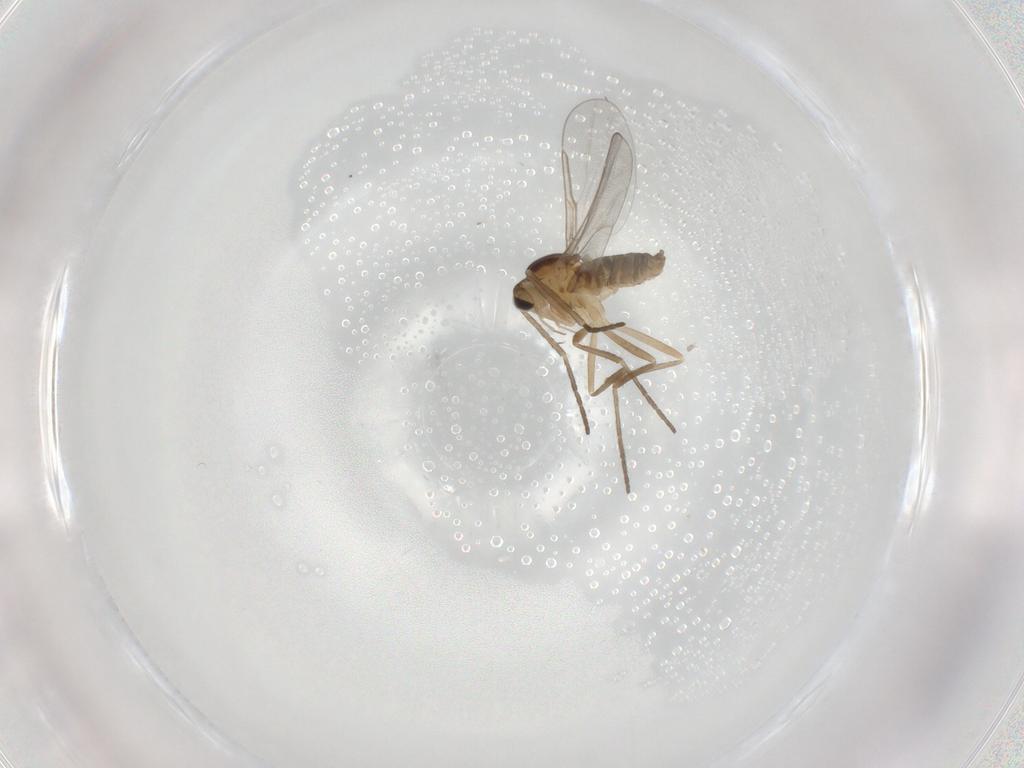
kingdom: Animalia
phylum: Arthropoda
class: Insecta
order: Diptera
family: Cecidomyiidae
